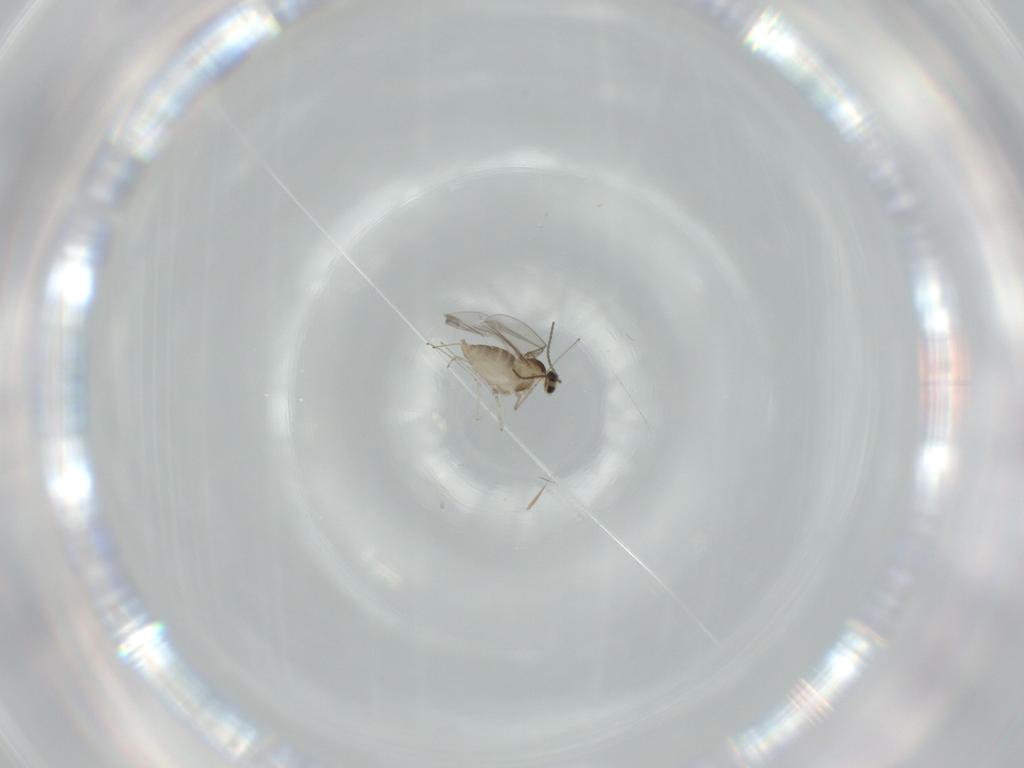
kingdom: Animalia
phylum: Arthropoda
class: Insecta
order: Diptera
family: Cecidomyiidae
